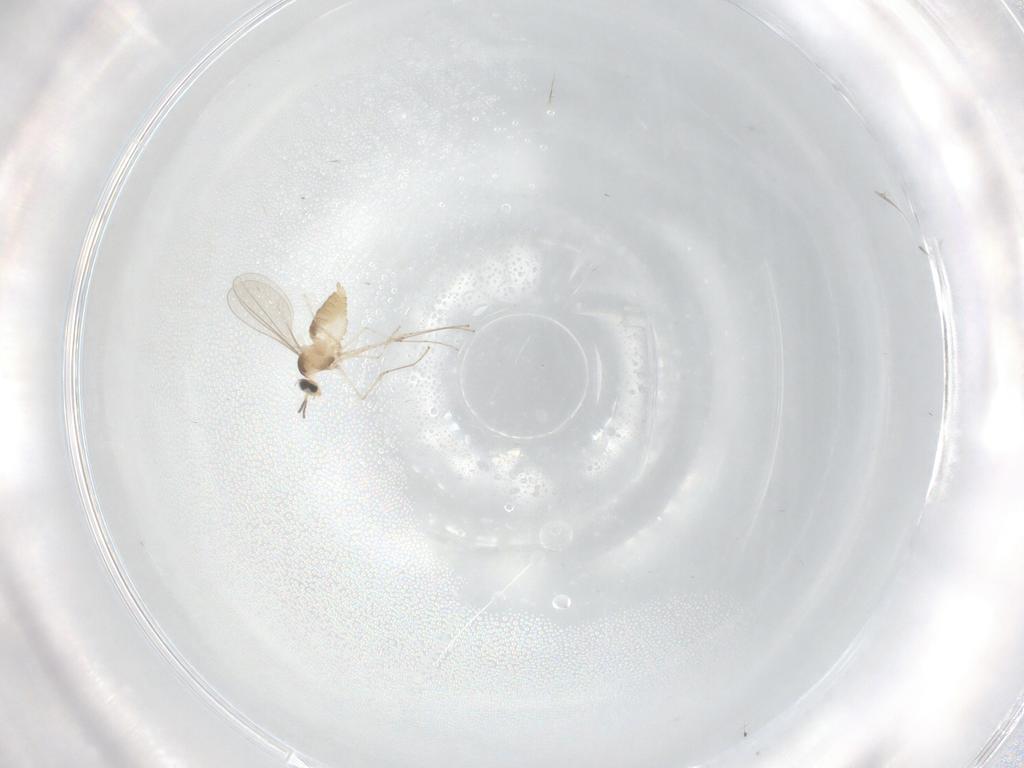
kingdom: Animalia
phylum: Arthropoda
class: Insecta
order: Diptera
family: Cecidomyiidae
